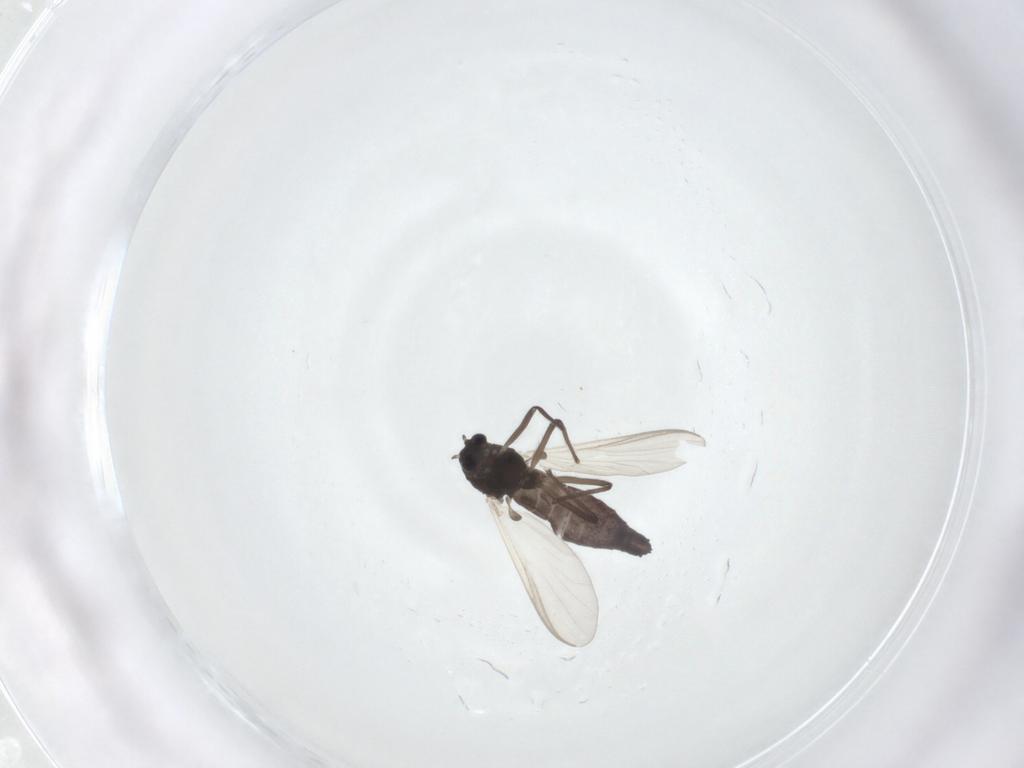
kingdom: Animalia
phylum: Arthropoda
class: Insecta
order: Diptera
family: Chironomidae
